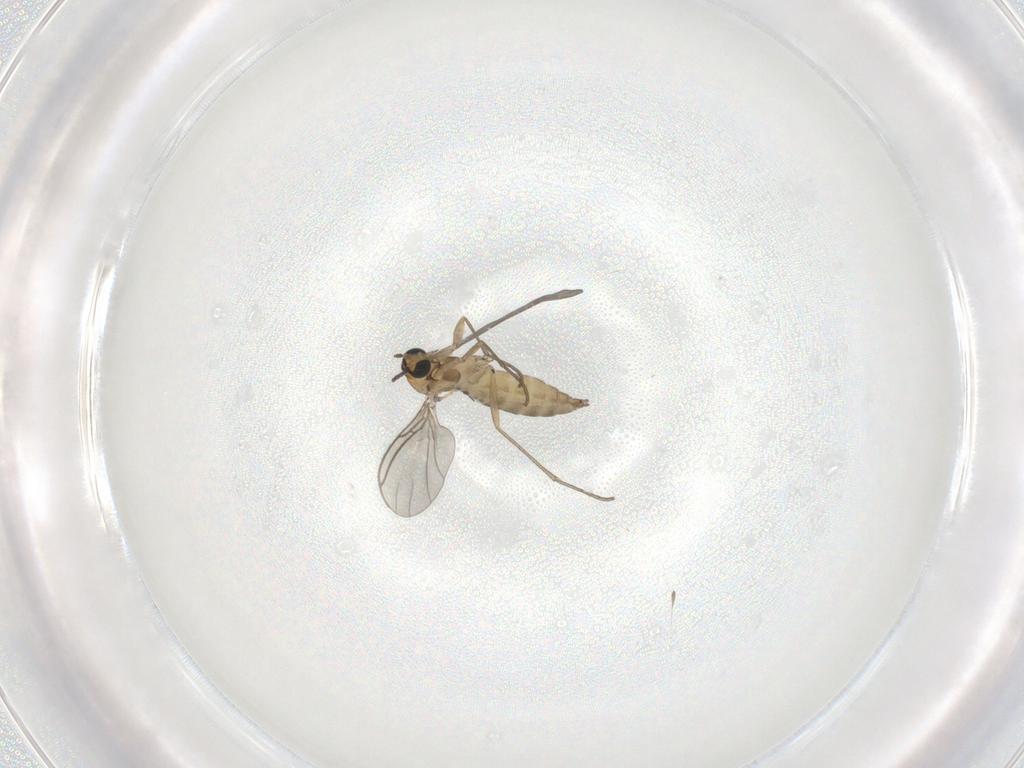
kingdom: Animalia
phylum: Arthropoda
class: Insecta
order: Diptera
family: Sciaridae
